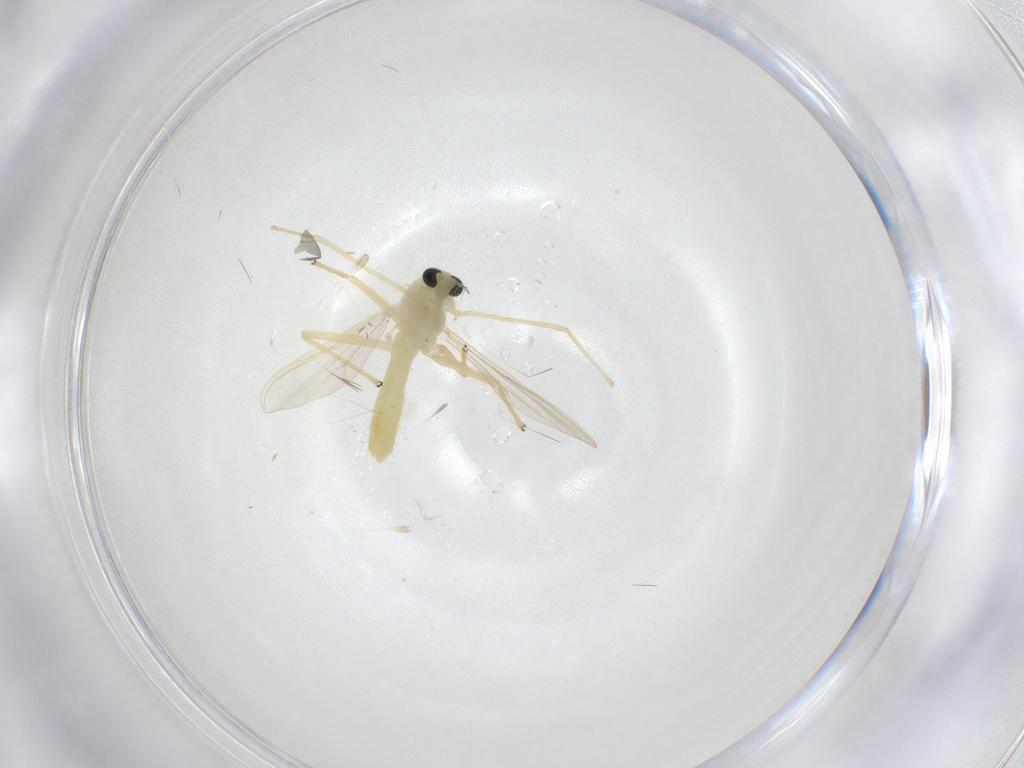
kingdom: Animalia
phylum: Arthropoda
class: Insecta
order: Diptera
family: Chironomidae
